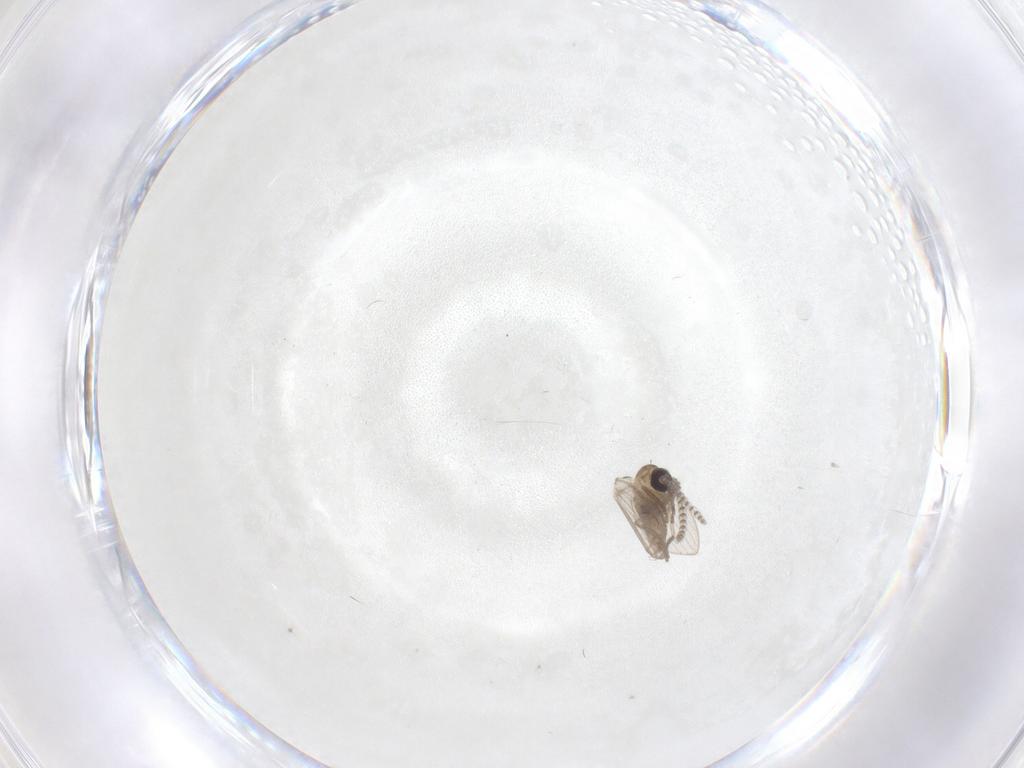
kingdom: Animalia
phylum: Arthropoda
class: Insecta
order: Diptera
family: Psychodidae
